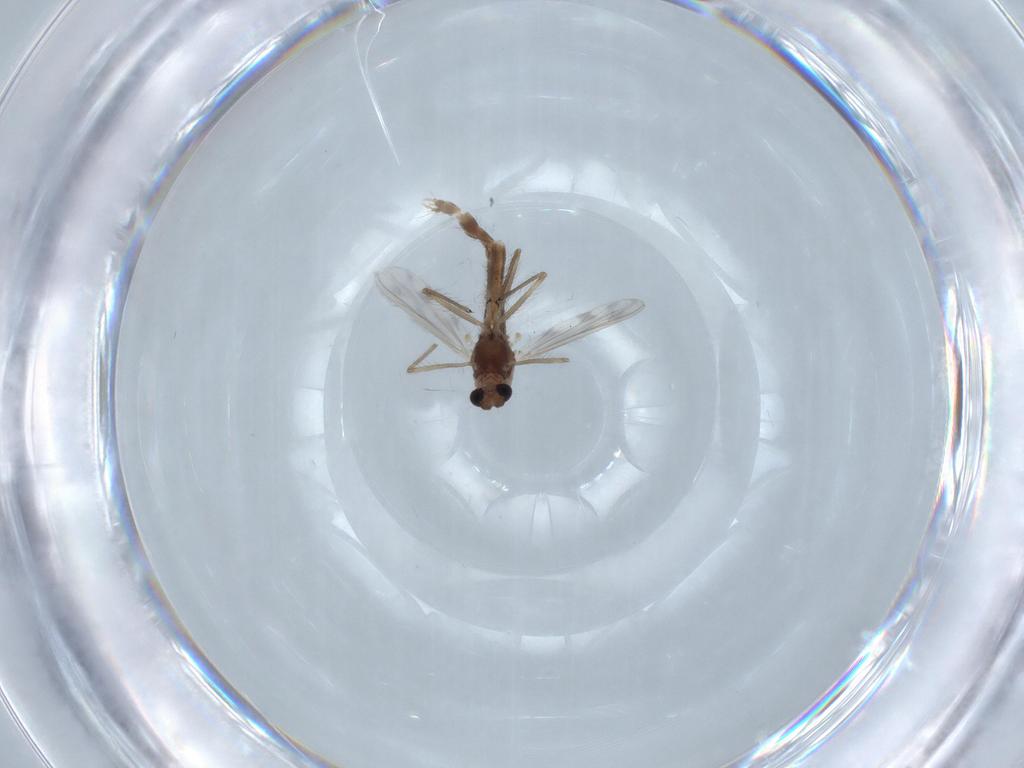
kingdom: Animalia
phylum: Arthropoda
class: Insecta
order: Diptera
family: Chironomidae
